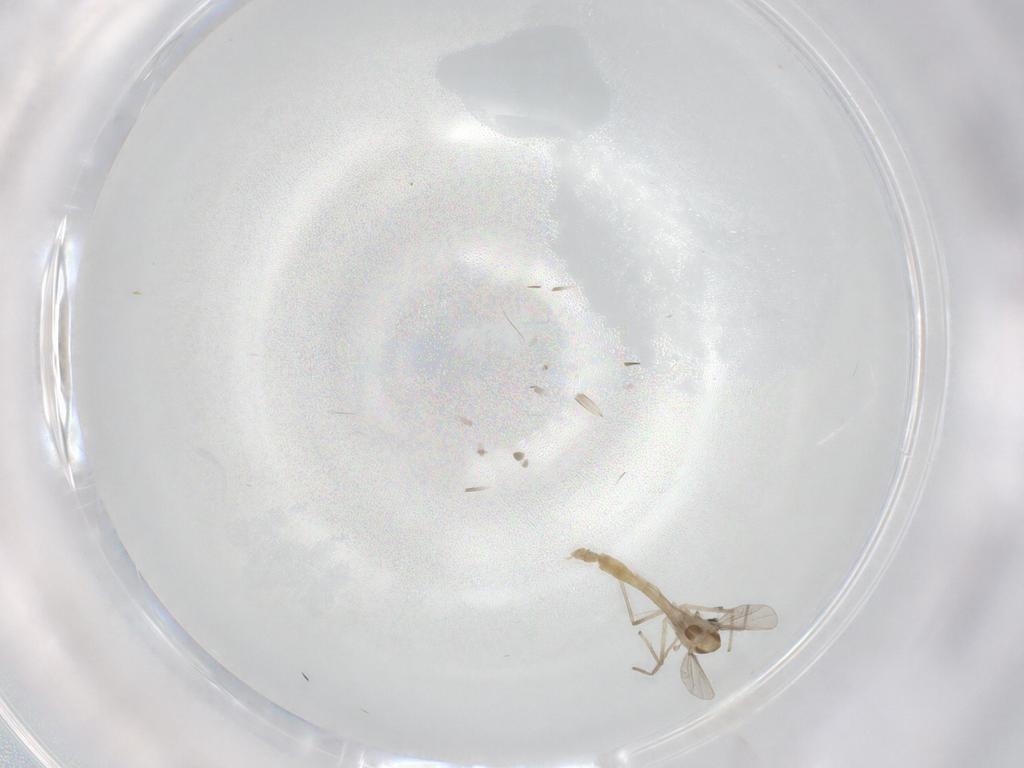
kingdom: Animalia
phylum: Arthropoda
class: Insecta
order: Diptera
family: Chironomidae
